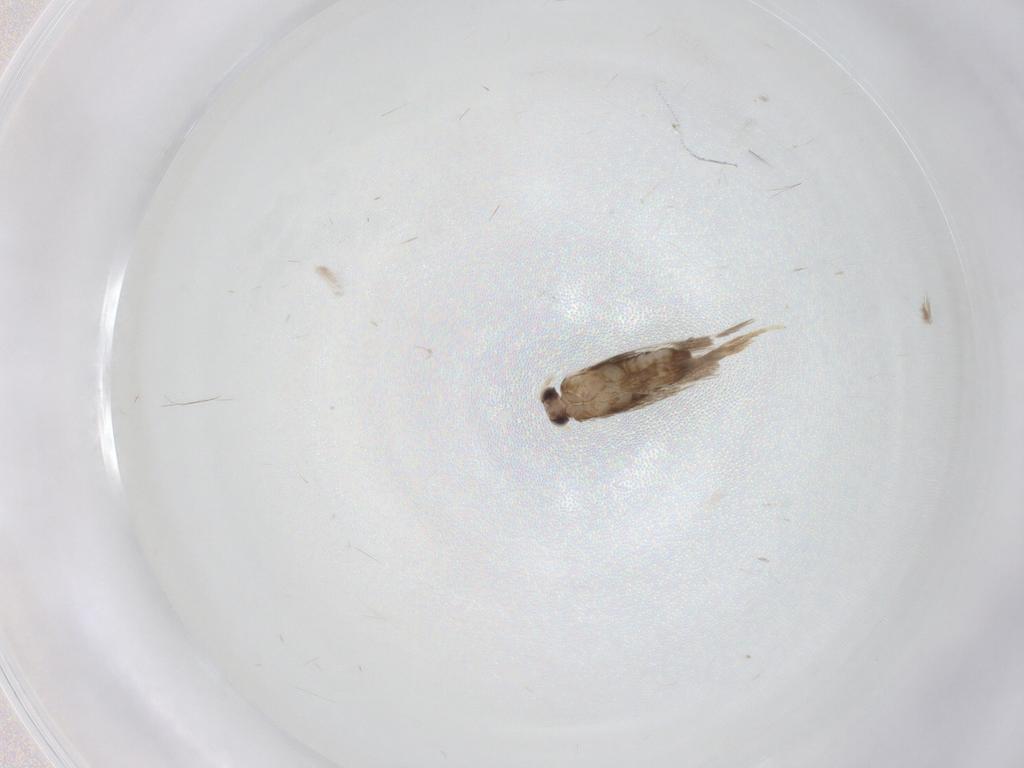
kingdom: Animalia
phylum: Arthropoda
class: Insecta
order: Lepidoptera
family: Nepticulidae
